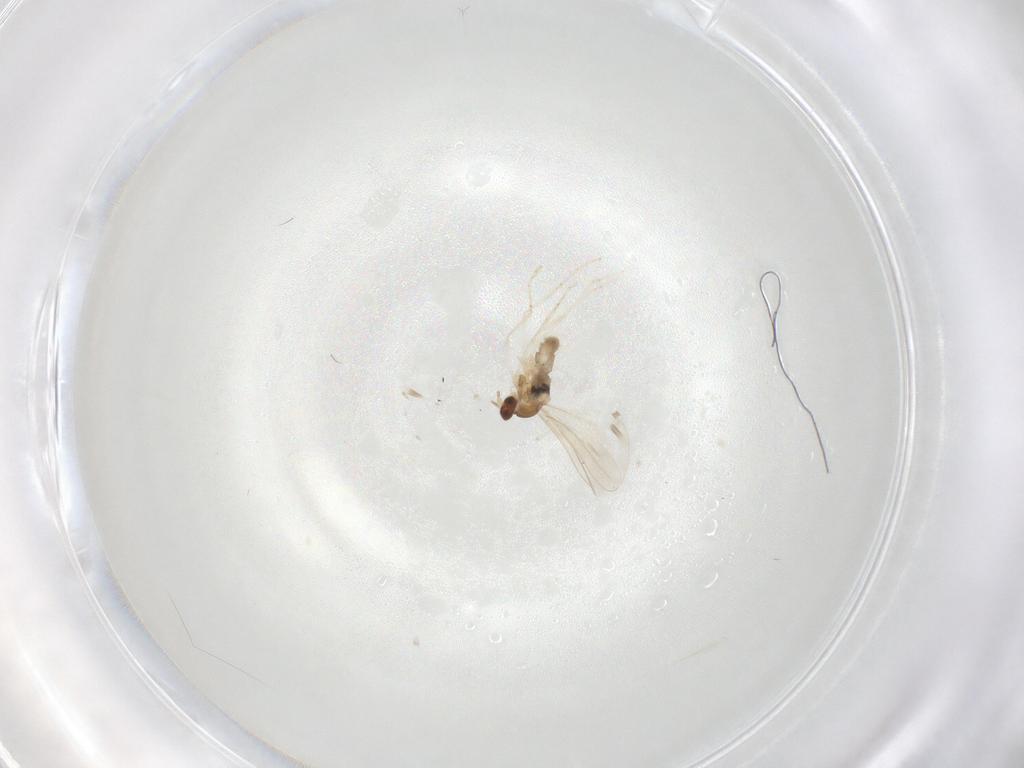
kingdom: Animalia
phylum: Arthropoda
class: Insecta
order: Diptera
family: Cecidomyiidae
